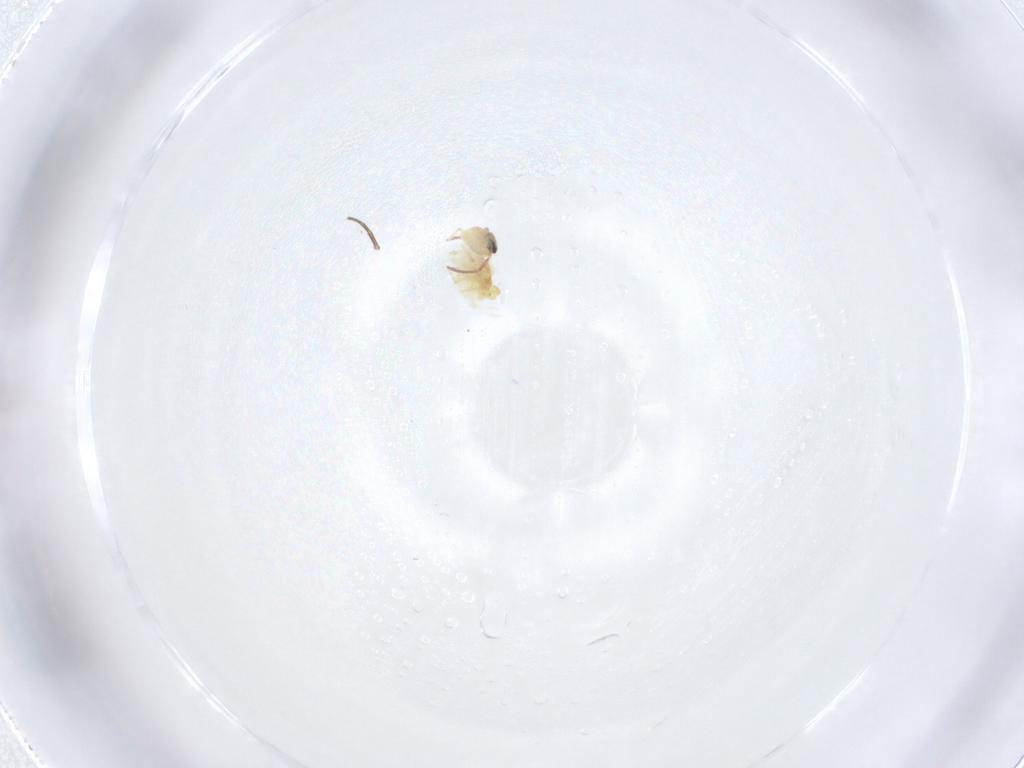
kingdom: Animalia
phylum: Arthropoda
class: Collembola
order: Symphypleona
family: Bourletiellidae
